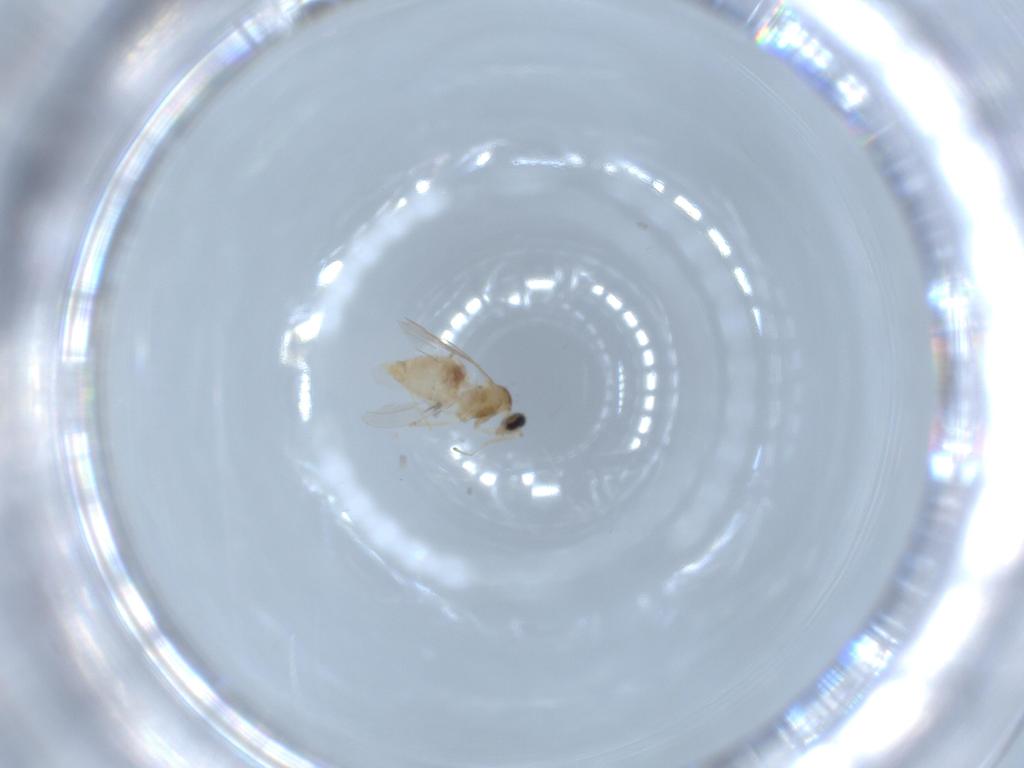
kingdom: Animalia
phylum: Arthropoda
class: Insecta
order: Diptera
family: Cecidomyiidae
